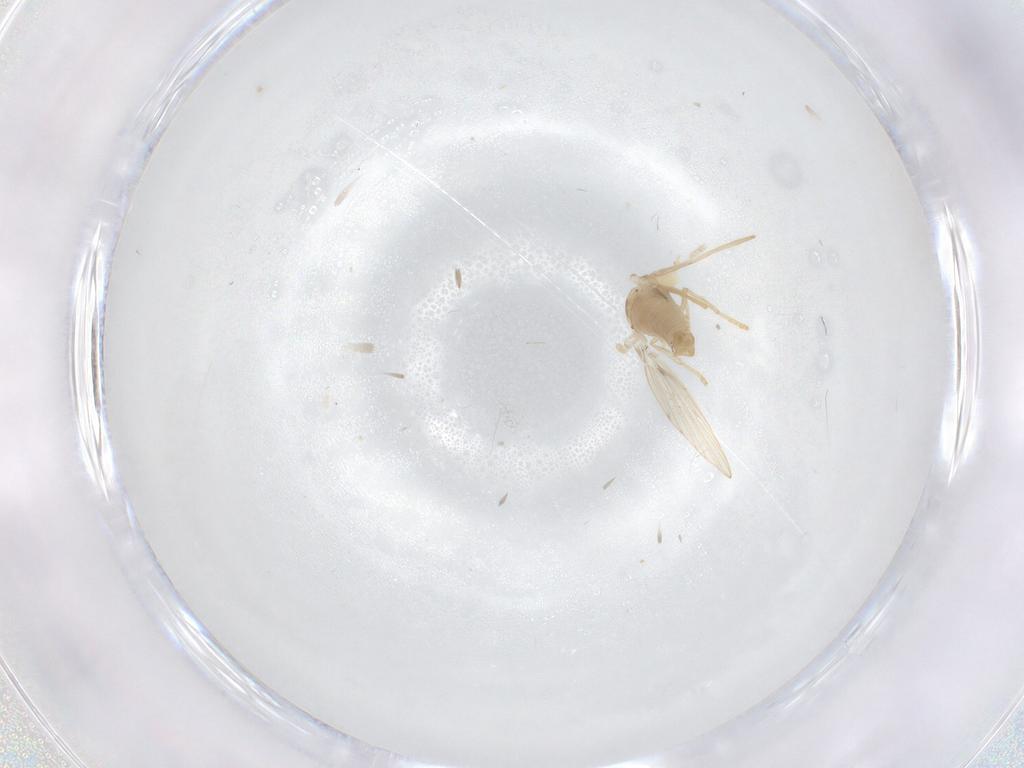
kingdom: Animalia
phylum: Arthropoda
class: Insecta
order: Diptera
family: Psychodidae
